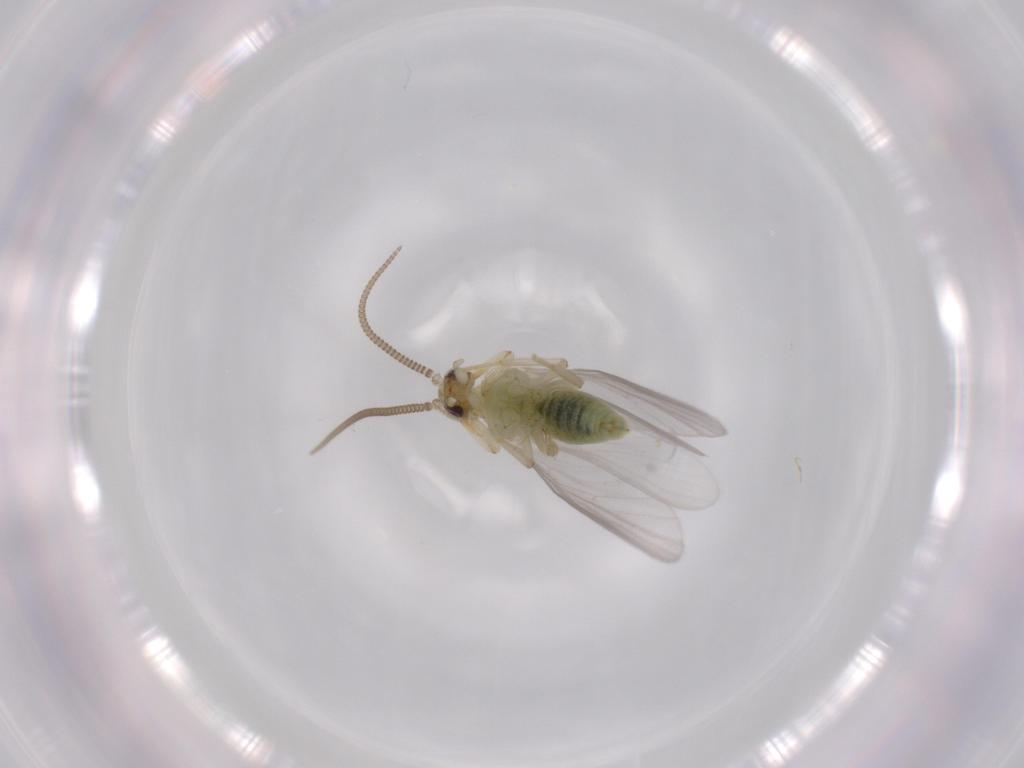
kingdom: Animalia
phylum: Arthropoda
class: Insecta
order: Neuroptera
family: Coniopterygidae
